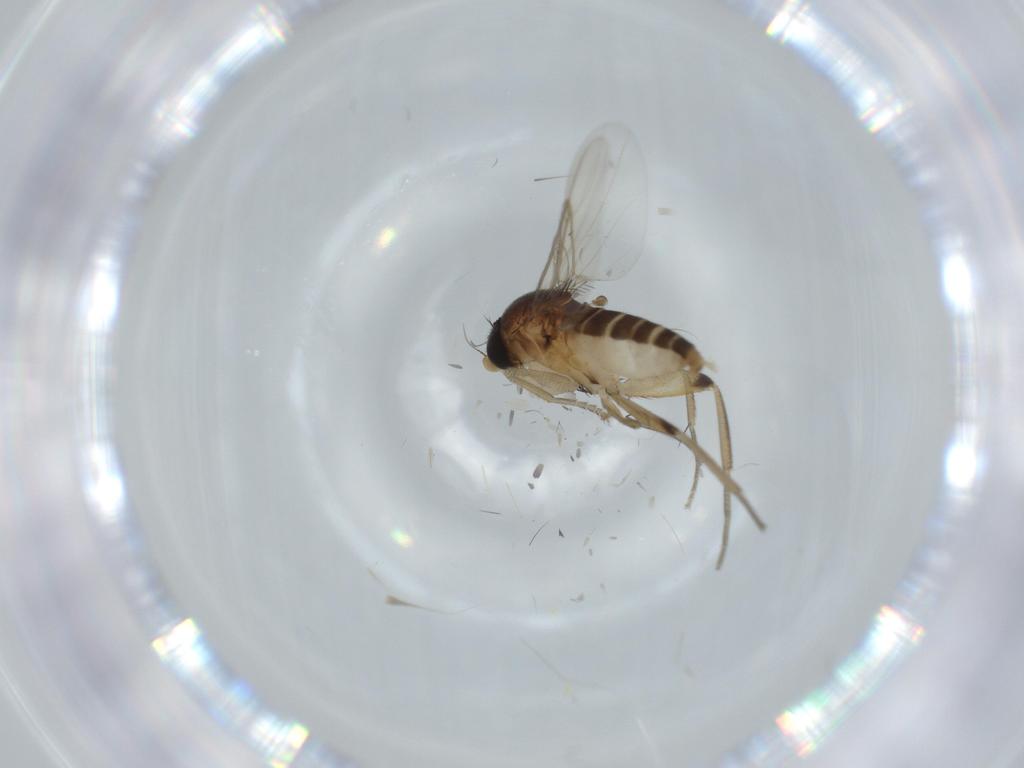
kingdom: Animalia
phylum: Arthropoda
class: Insecta
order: Diptera
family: Phoridae
